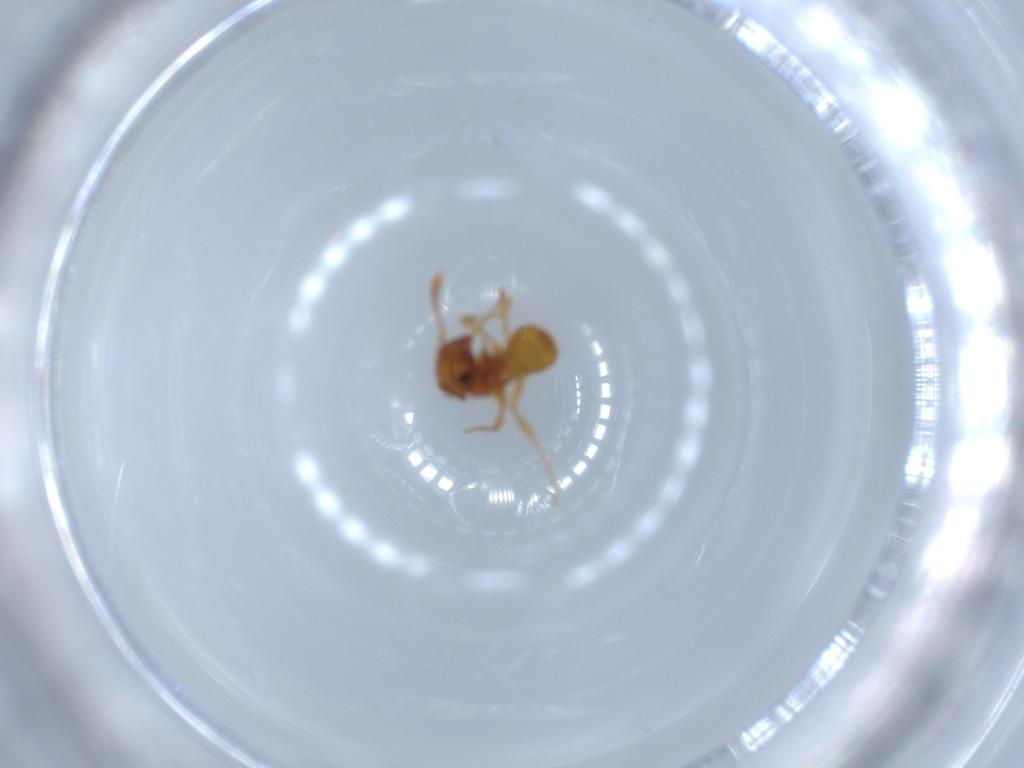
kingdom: Animalia
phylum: Arthropoda
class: Insecta
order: Hymenoptera
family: Formicidae
